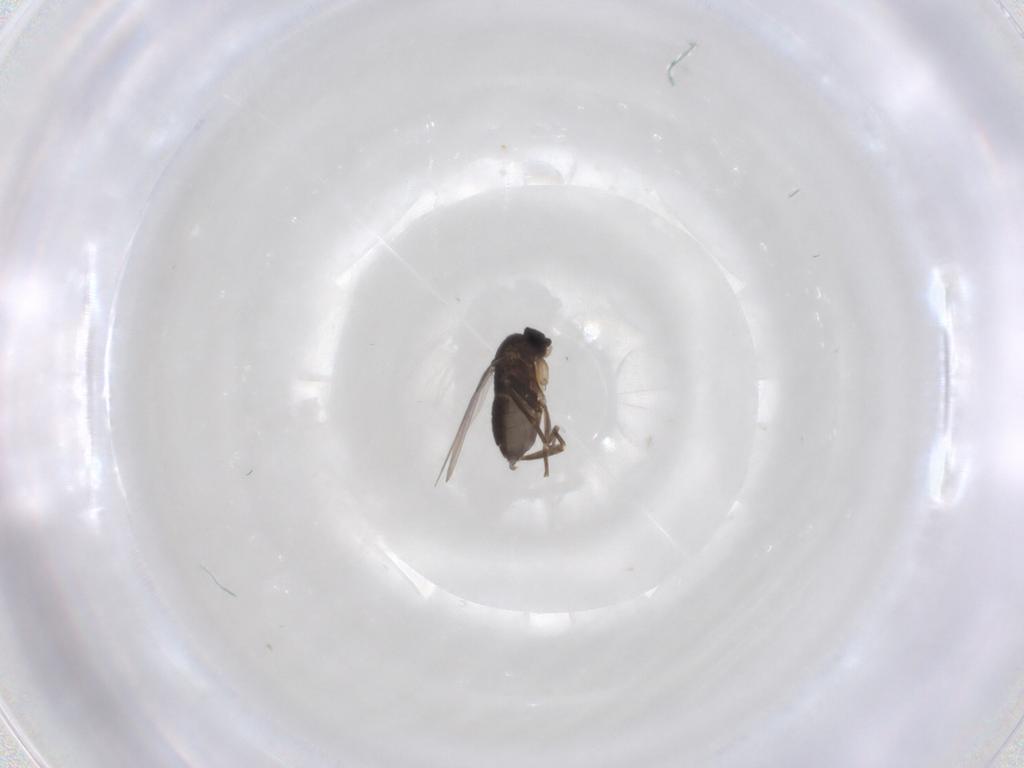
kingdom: Animalia
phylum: Arthropoda
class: Insecta
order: Diptera
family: Phoridae
